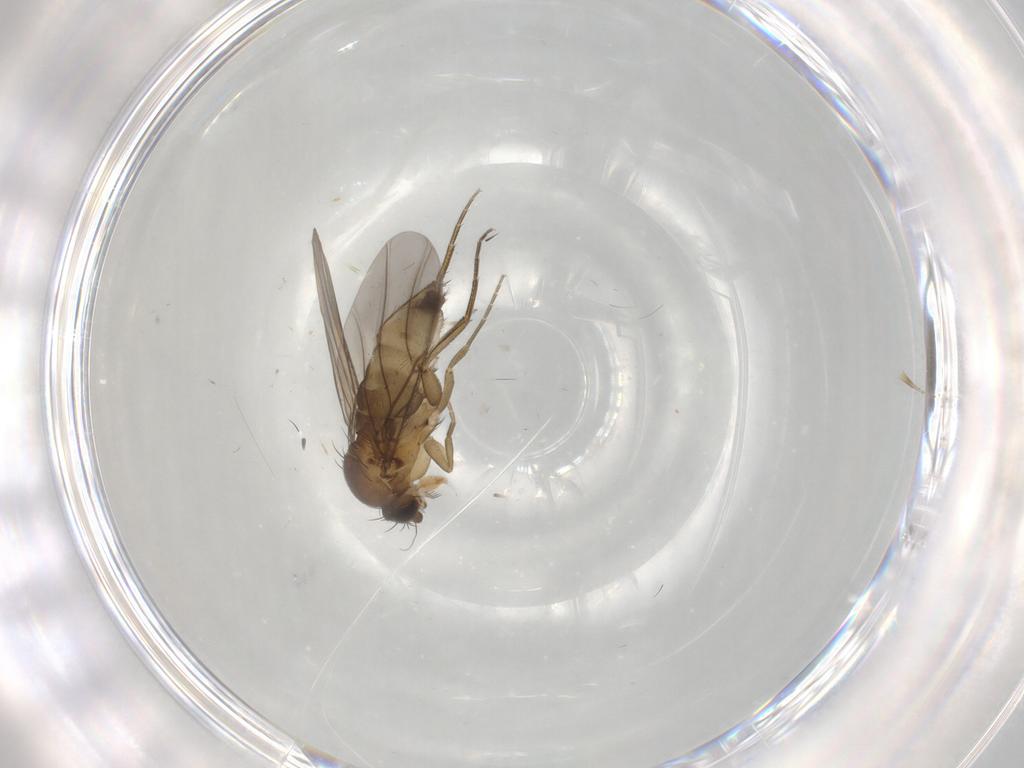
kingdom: Animalia
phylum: Arthropoda
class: Insecta
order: Diptera
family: Phoridae
